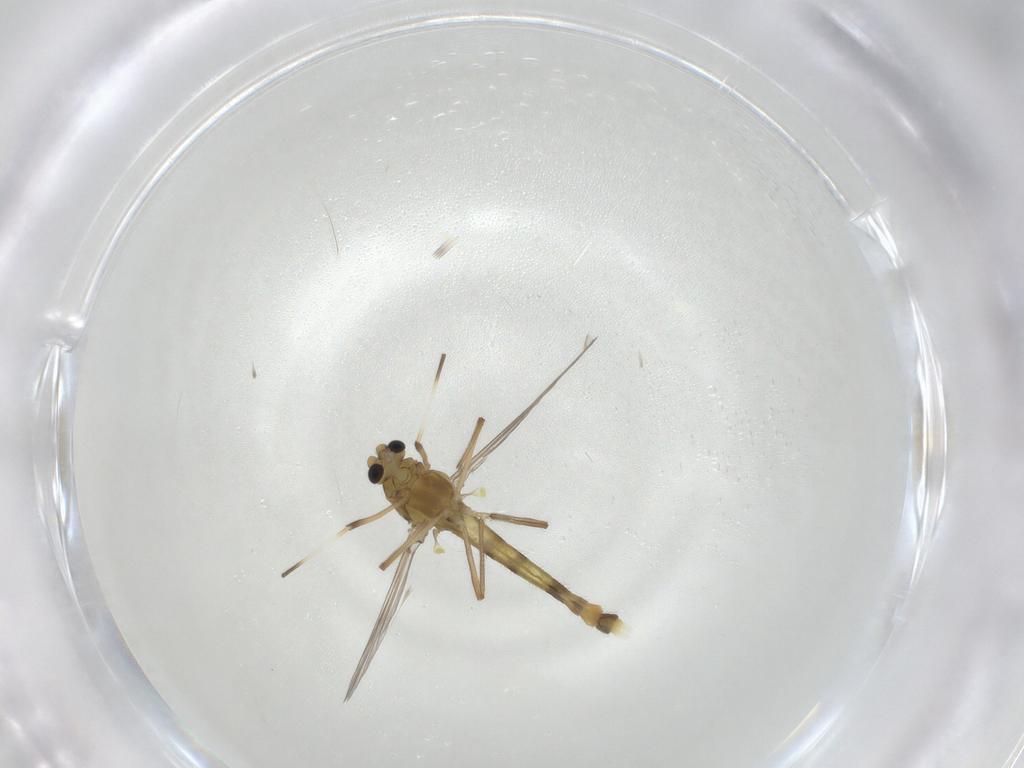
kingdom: Animalia
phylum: Arthropoda
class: Insecta
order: Diptera
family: Chironomidae
